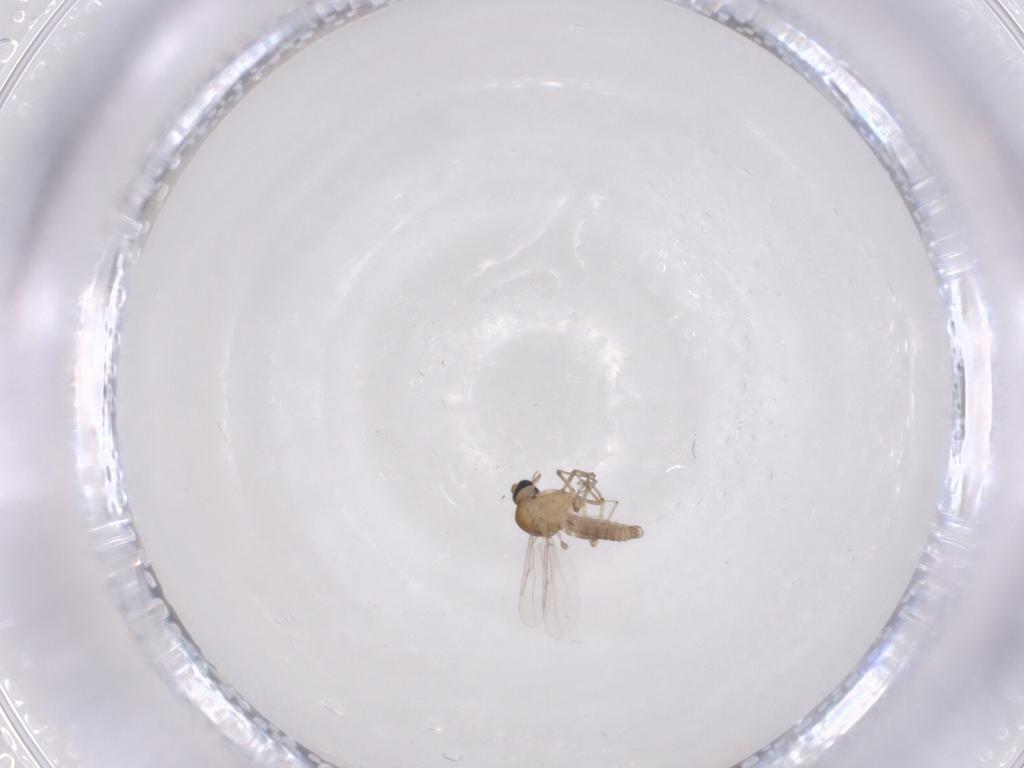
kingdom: Animalia
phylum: Arthropoda
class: Insecta
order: Diptera
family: Ceratopogonidae
